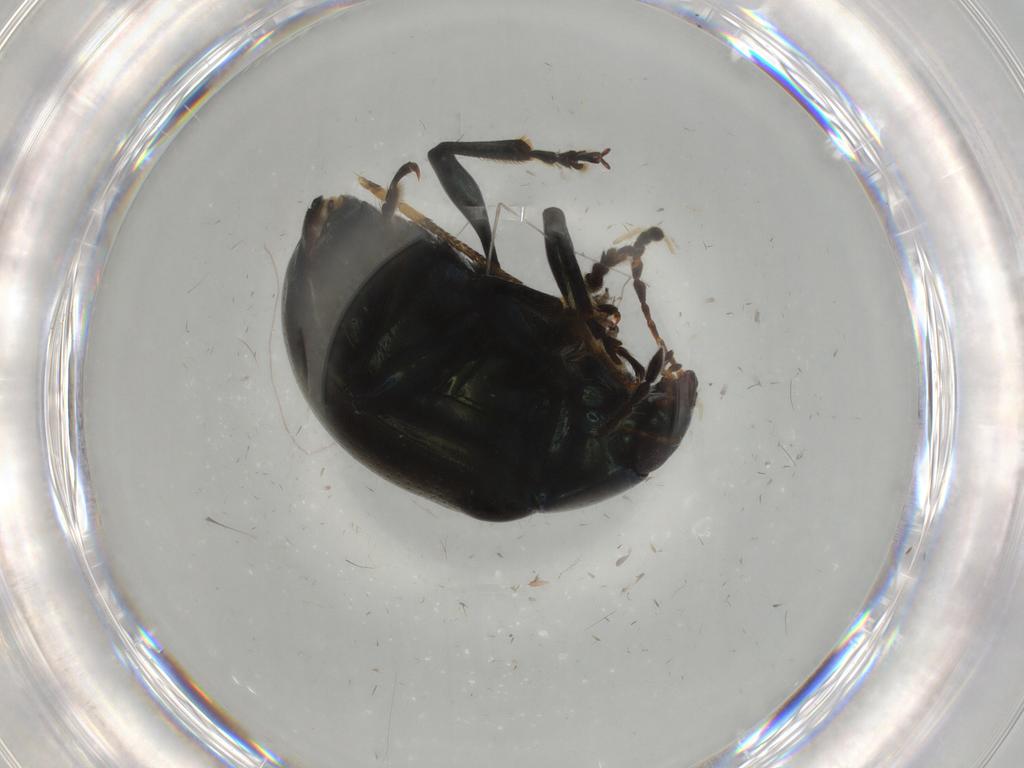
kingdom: Animalia
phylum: Arthropoda
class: Insecta
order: Coleoptera
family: Chrysomelidae
